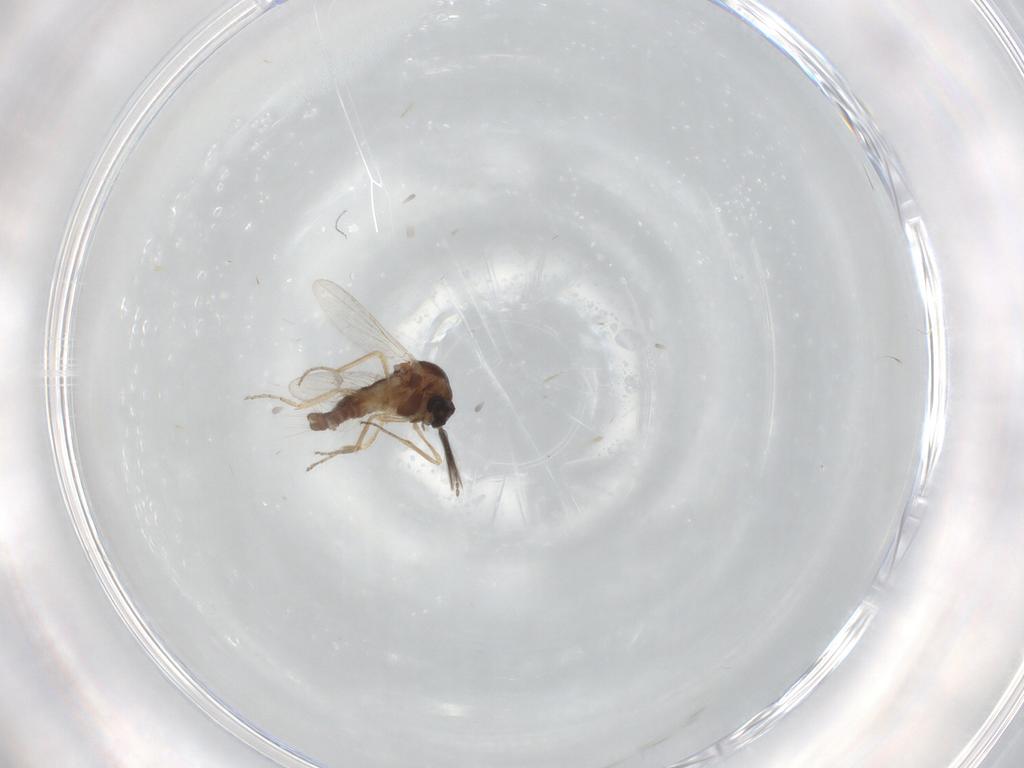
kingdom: Animalia
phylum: Arthropoda
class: Insecta
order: Diptera
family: Ceratopogonidae
